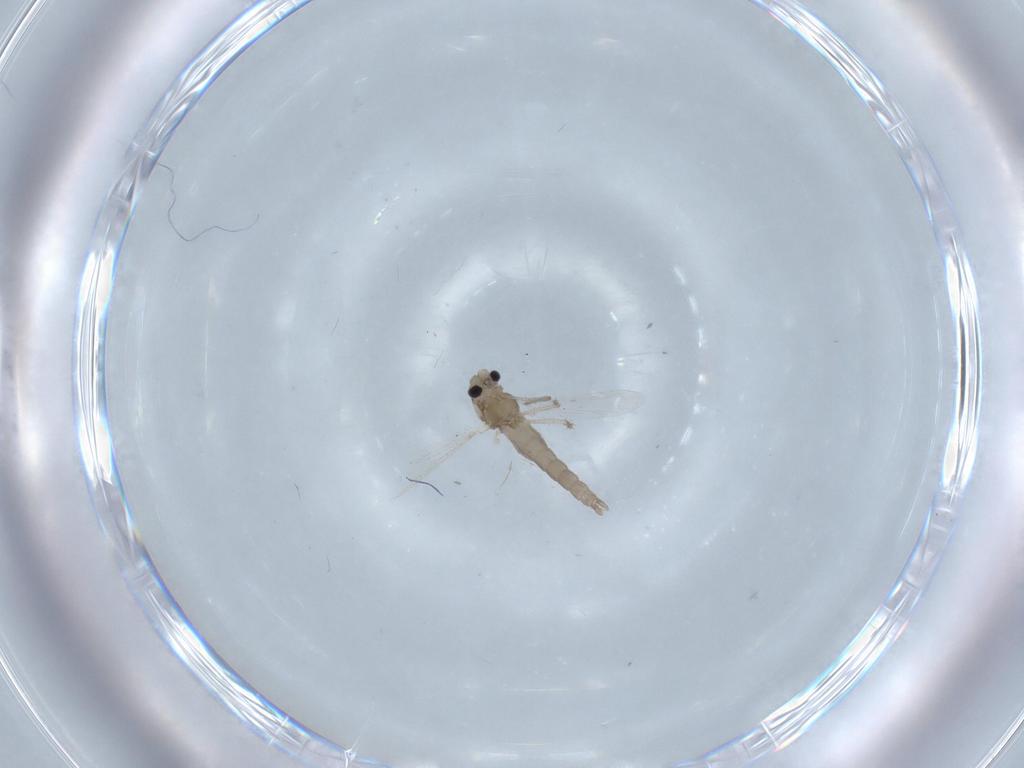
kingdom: Animalia
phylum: Arthropoda
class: Insecta
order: Diptera
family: Chironomidae
